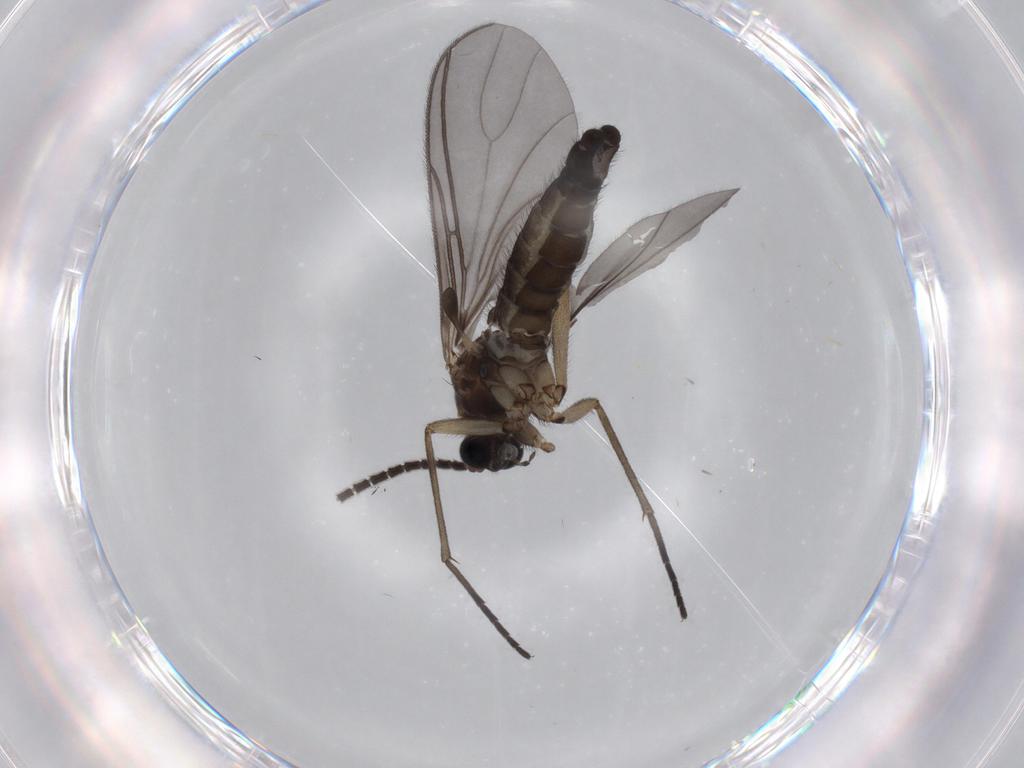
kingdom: Animalia
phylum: Arthropoda
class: Insecta
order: Diptera
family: Sciaridae
